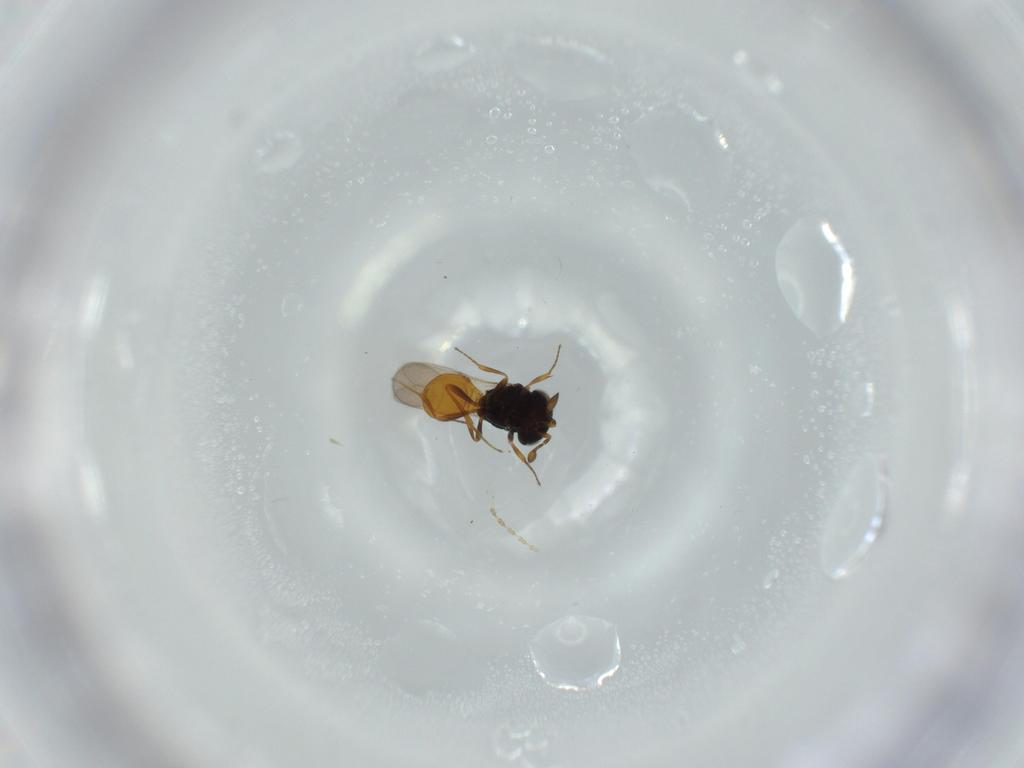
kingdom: Animalia
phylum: Arthropoda
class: Insecta
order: Hymenoptera
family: Scelionidae
